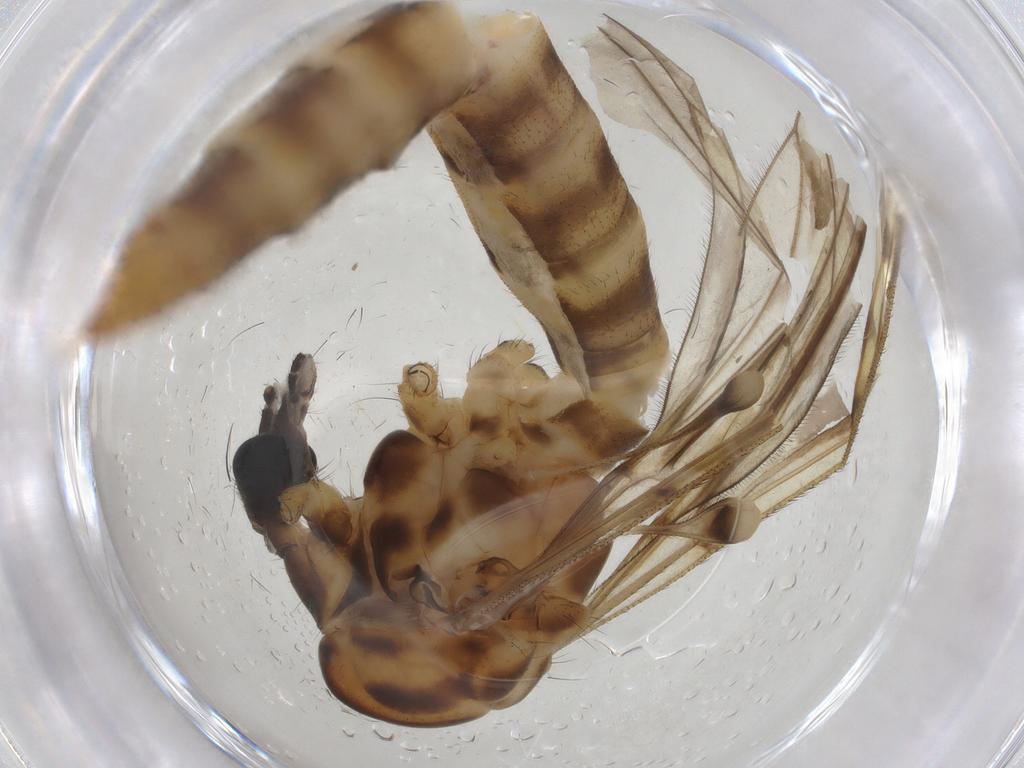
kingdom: Animalia
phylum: Arthropoda
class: Insecta
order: Diptera
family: Limoniidae
